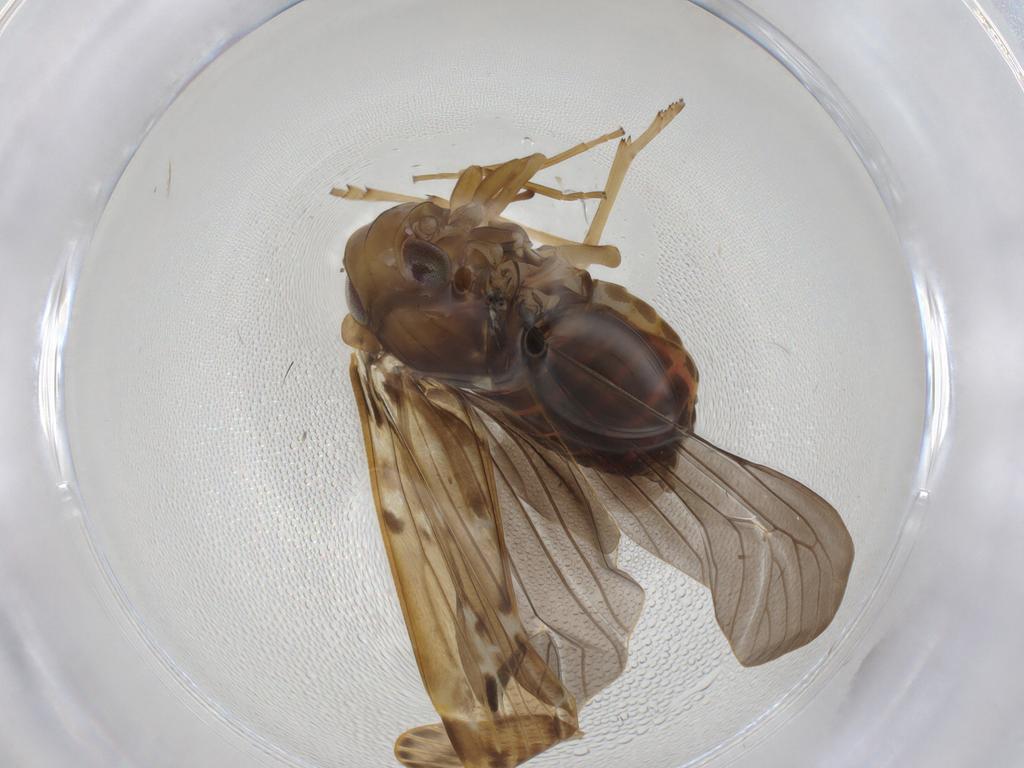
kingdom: Animalia
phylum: Arthropoda
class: Insecta
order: Hemiptera
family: Achilidae
